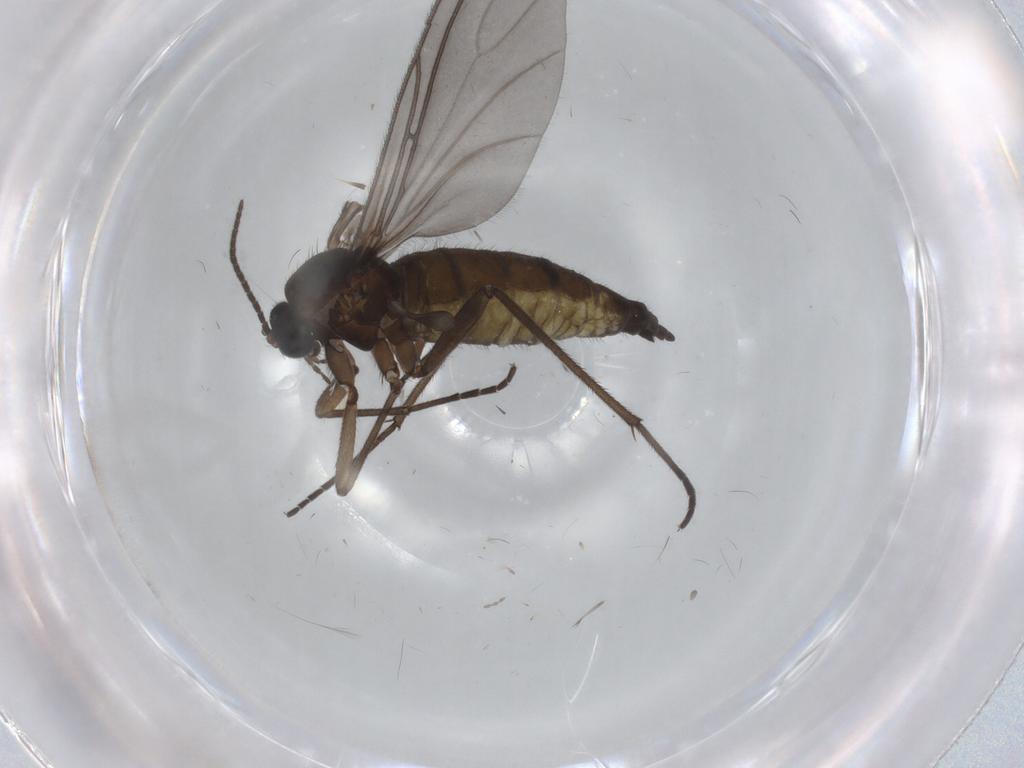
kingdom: Animalia
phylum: Arthropoda
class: Insecta
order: Diptera
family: Sciaridae
